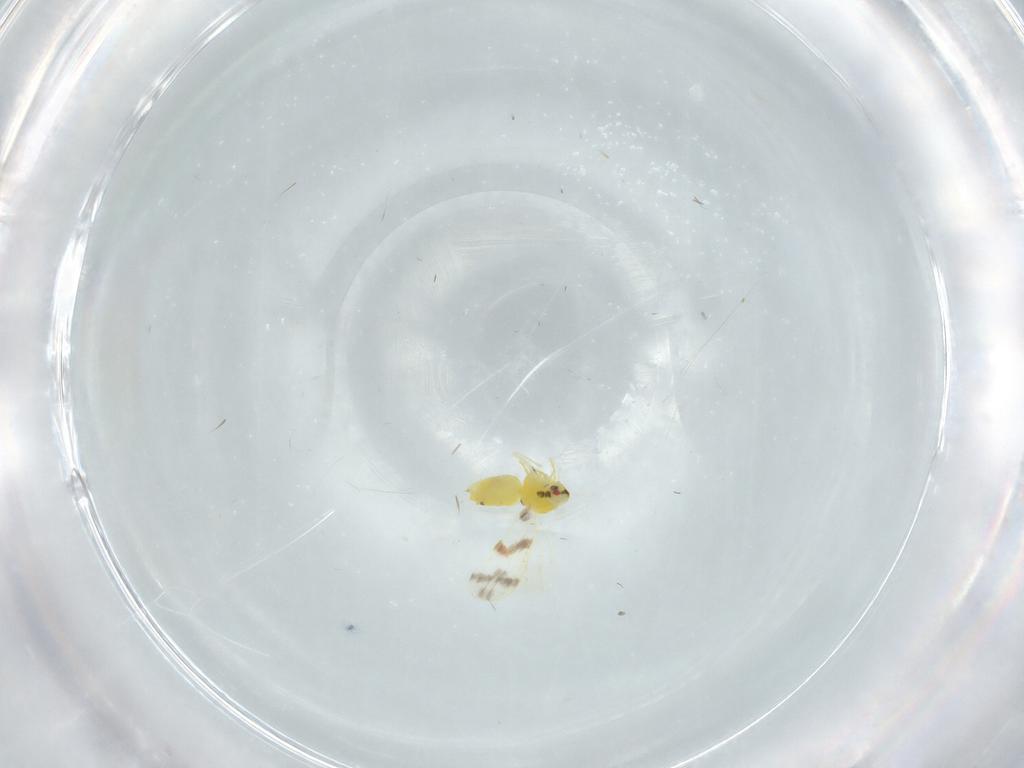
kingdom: Animalia
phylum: Arthropoda
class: Insecta
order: Hemiptera
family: Aleyrodidae
